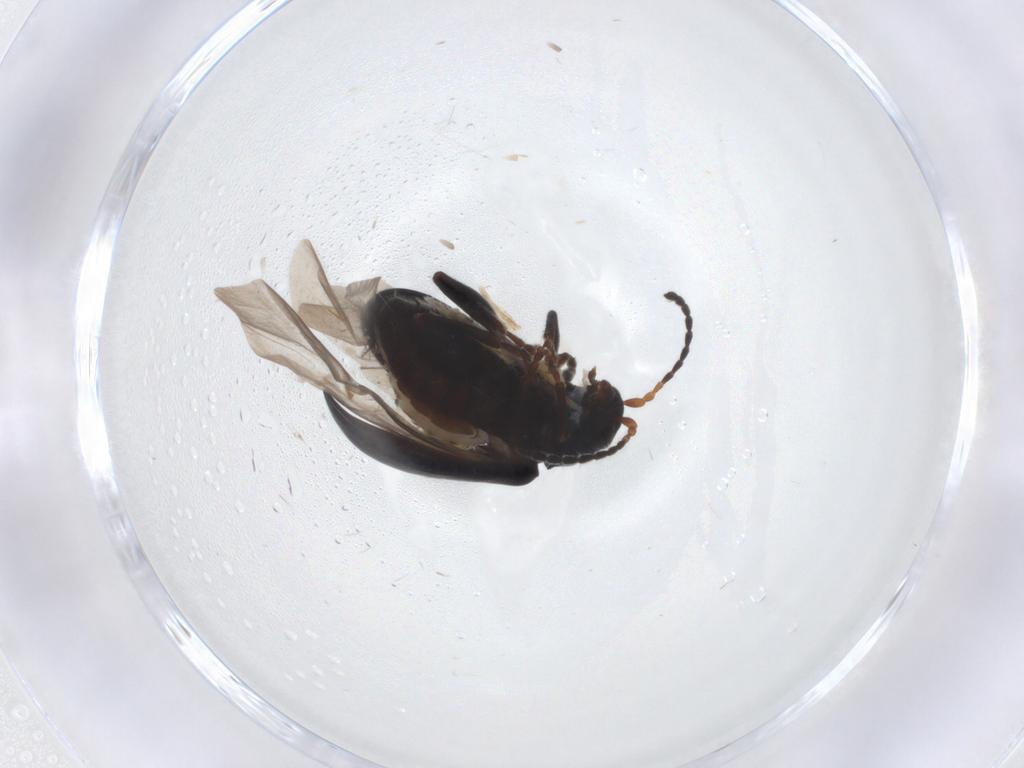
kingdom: Animalia
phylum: Arthropoda
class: Insecta
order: Coleoptera
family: Chrysomelidae
